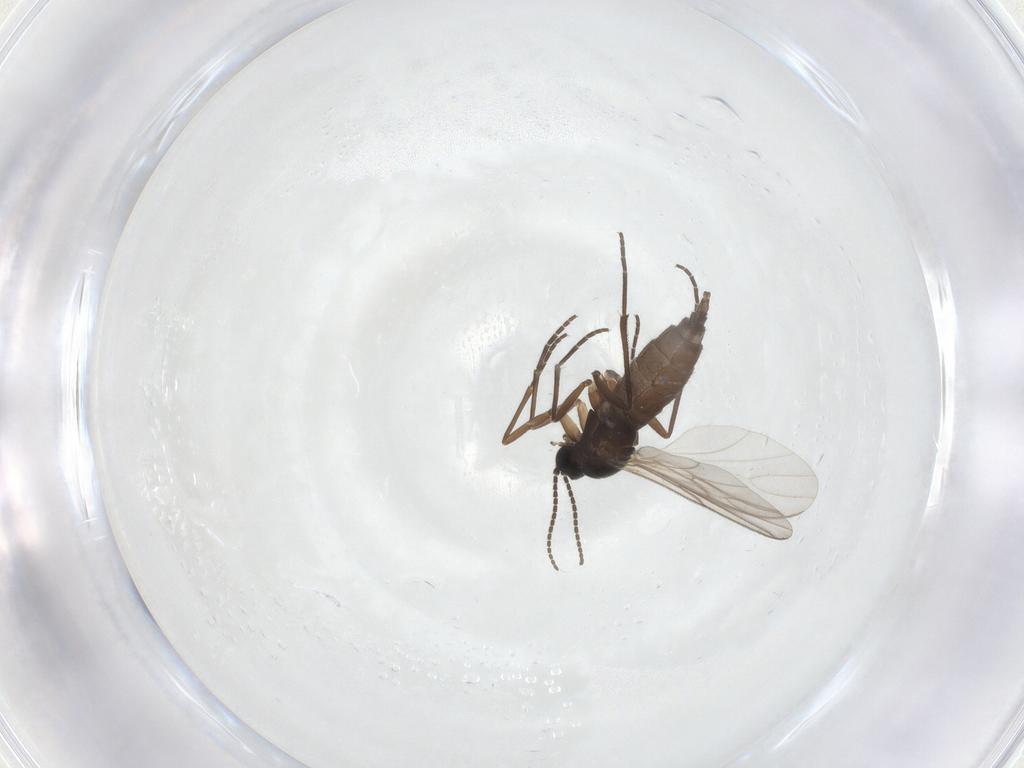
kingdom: Animalia
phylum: Arthropoda
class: Insecta
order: Diptera
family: Sciaridae
